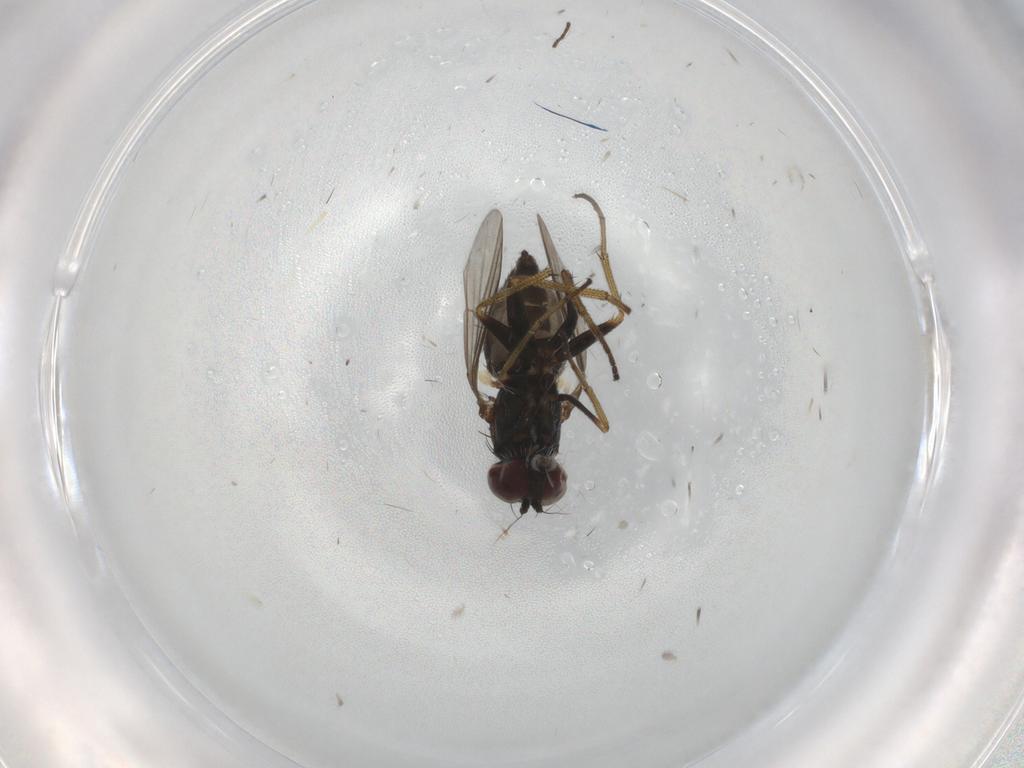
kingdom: Animalia
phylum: Arthropoda
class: Insecta
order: Diptera
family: Dolichopodidae
